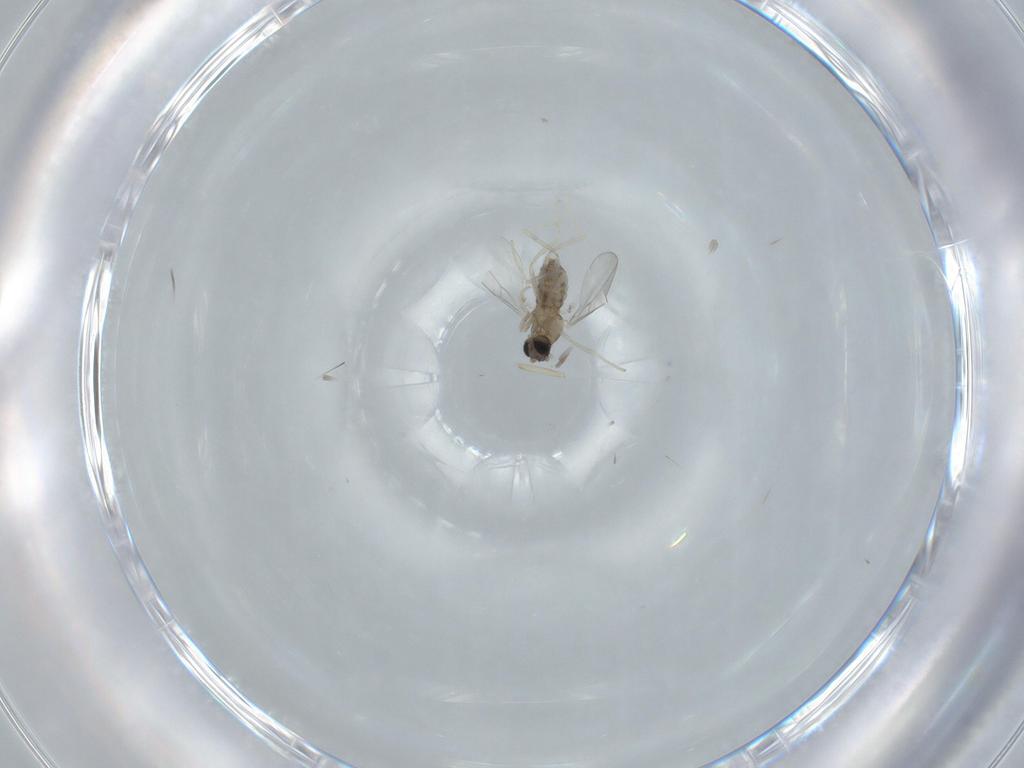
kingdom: Animalia
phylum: Arthropoda
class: Insecta
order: Diptera
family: Cecidomyiidae
